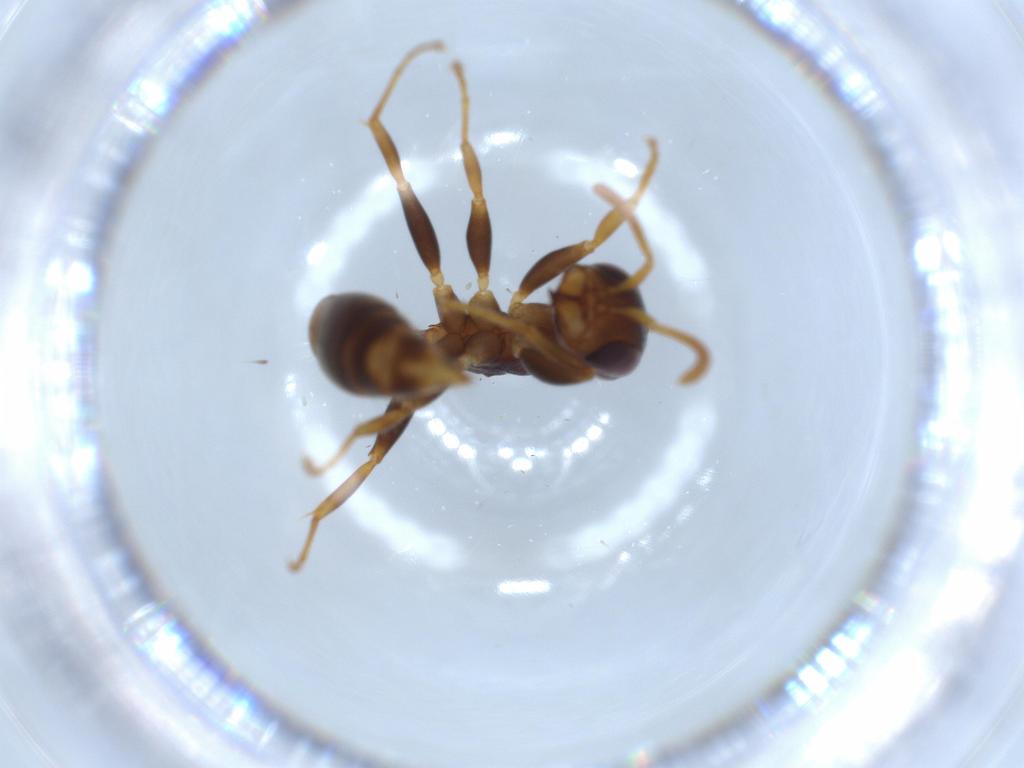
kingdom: Animalia
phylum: Arthropoda
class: Insecta
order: Hymenoptera
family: Formicidae
